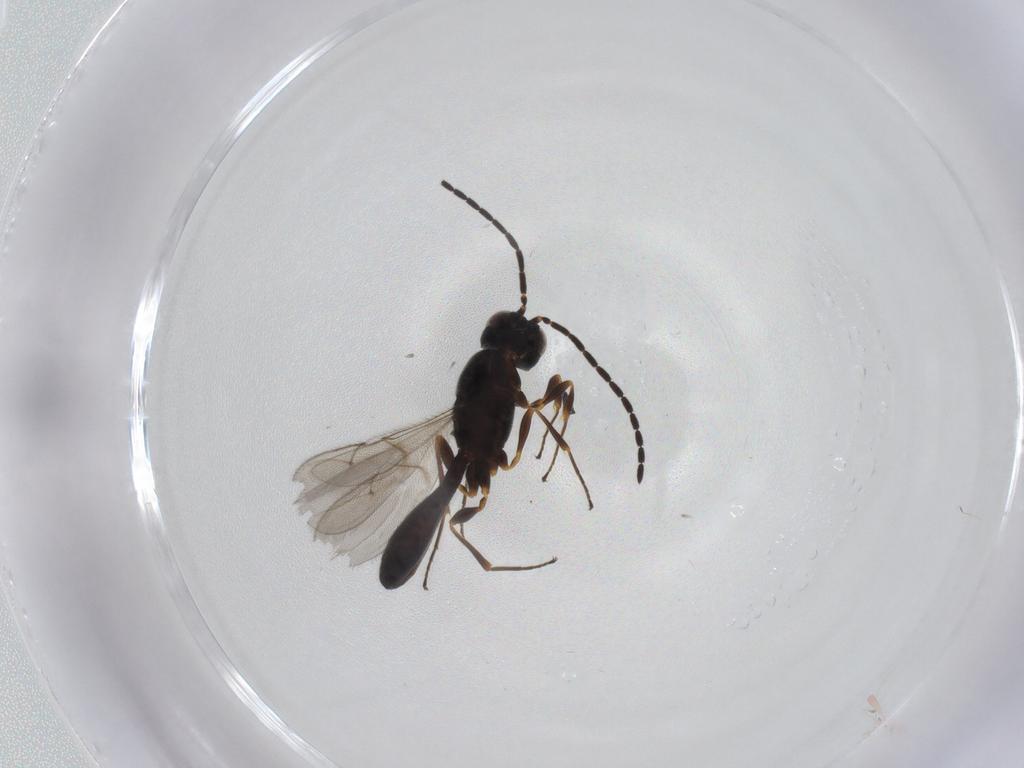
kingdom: Animalia
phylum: Arthropoda
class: Insecta
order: Hymenoptera
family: Scelionidae
